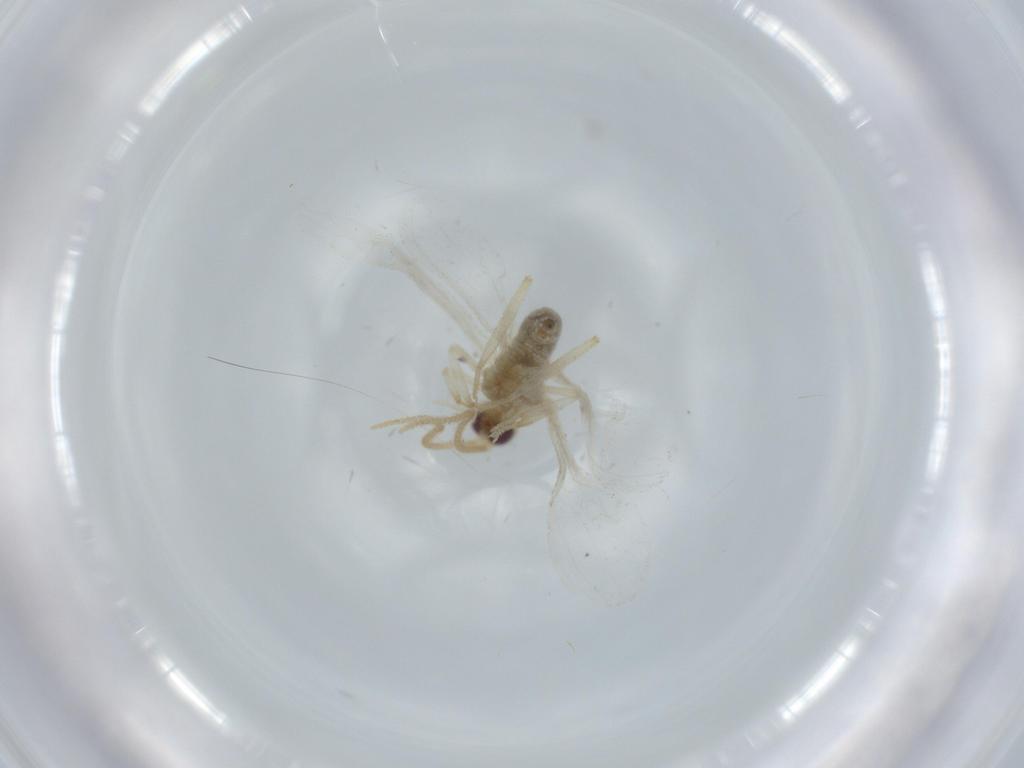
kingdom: Animalia
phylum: Arthropoda
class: Insecta
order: Neuroptera
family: Coniopterygidae
